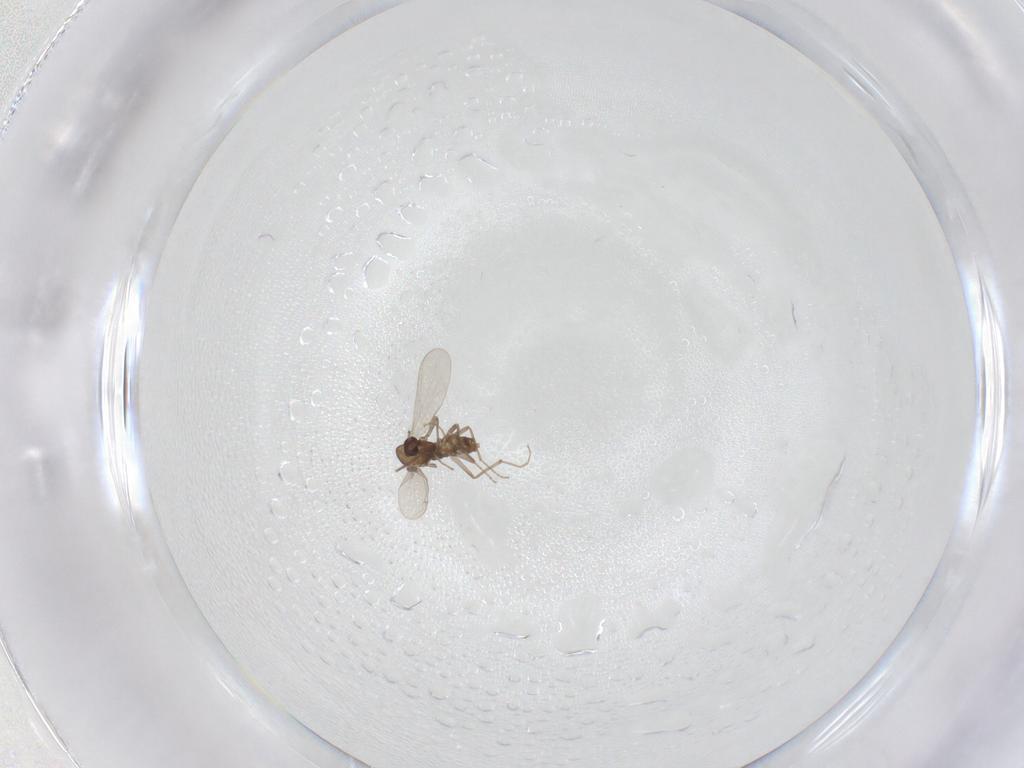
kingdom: Animalia
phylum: Arthropoda
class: Insecta
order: Diptera
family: Chironomidae
